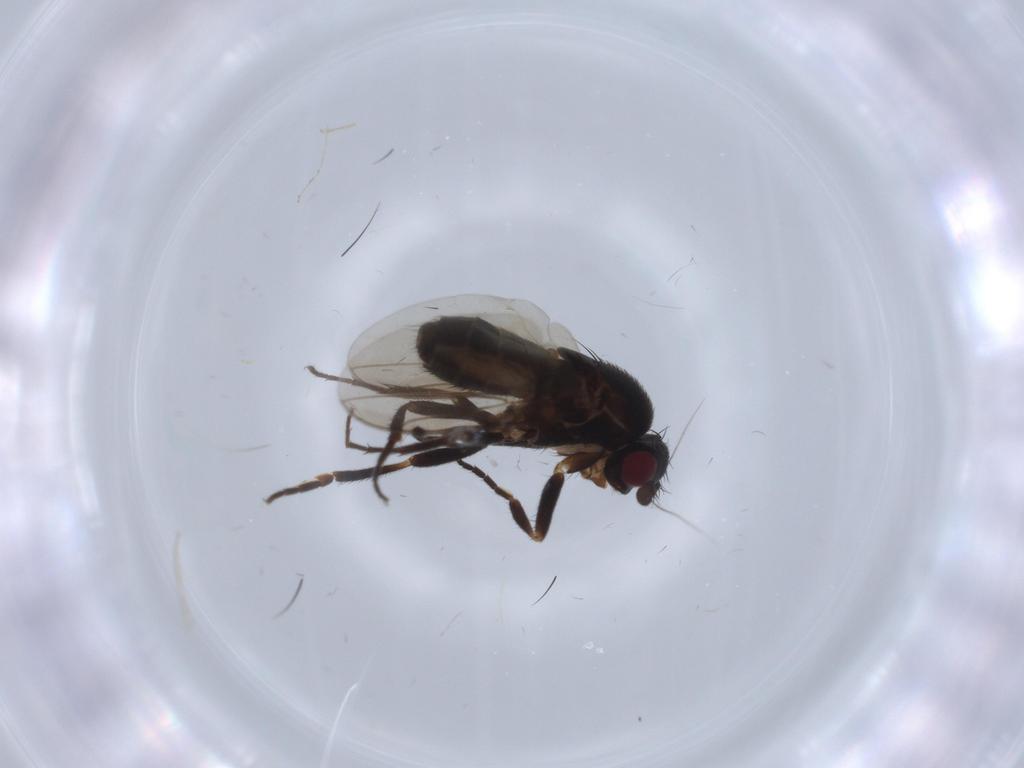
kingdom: Animalia
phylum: Arthropoda
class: Insecta
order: Diptera
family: Sphaeroceridae
